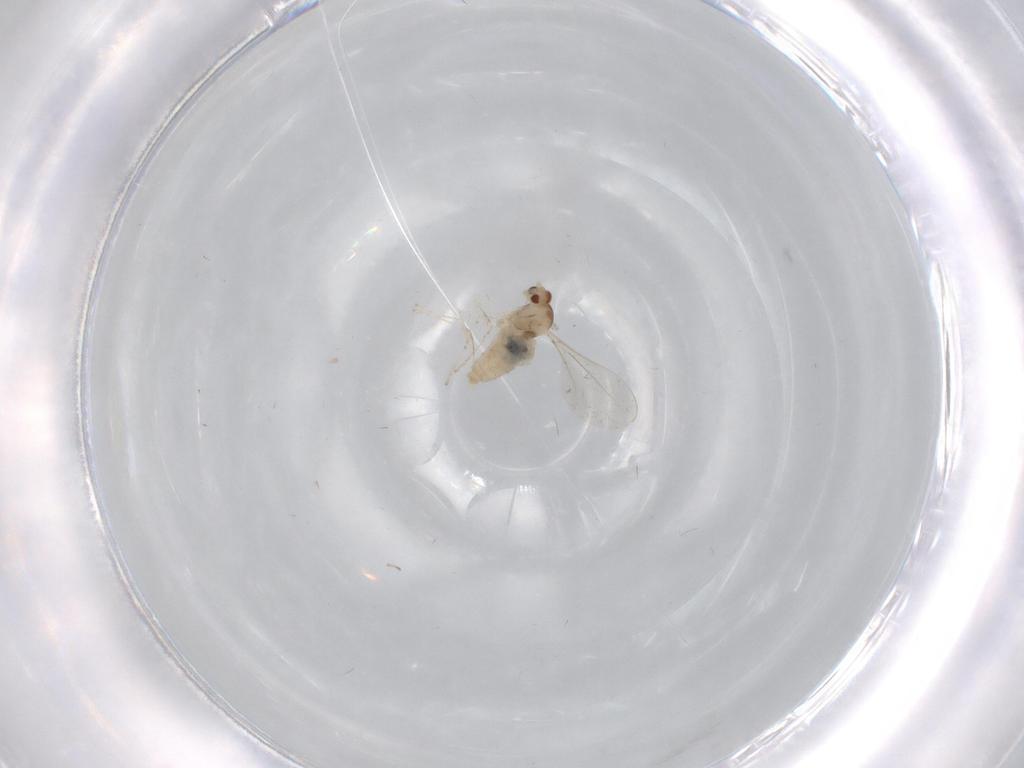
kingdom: Animalia
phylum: Arthropoda
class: Insecta
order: Diptera
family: Cecidomyiidae
